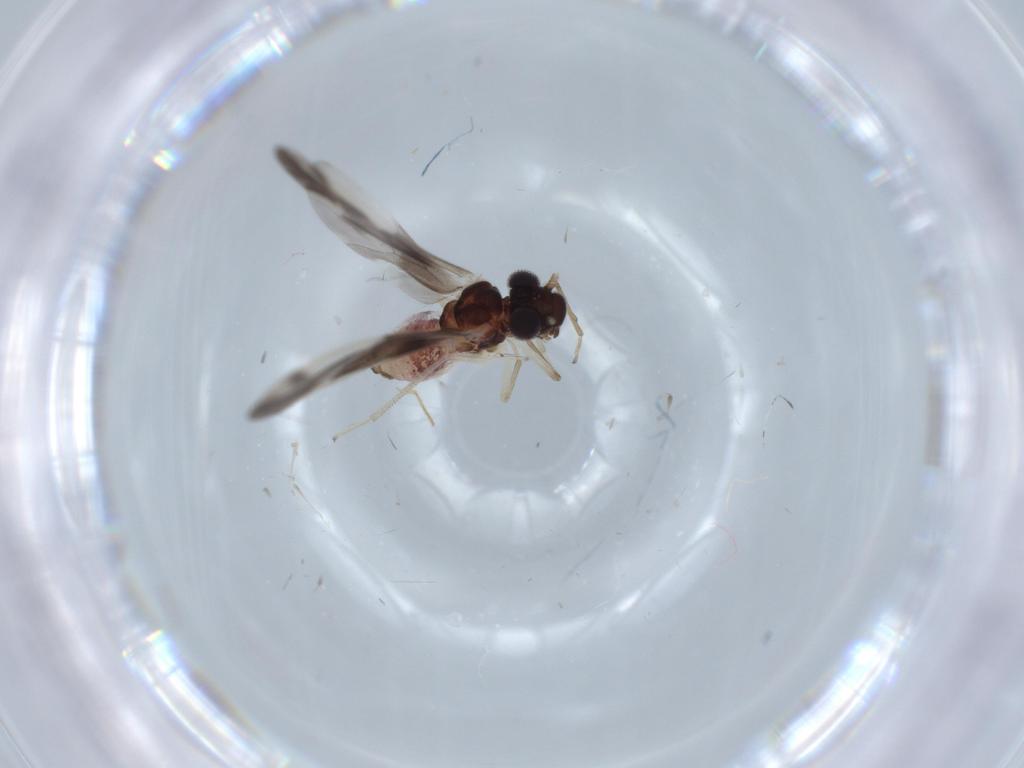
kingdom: Animalia
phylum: Arthropoda
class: Insecta
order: Psocodea
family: Caeciliusidae
